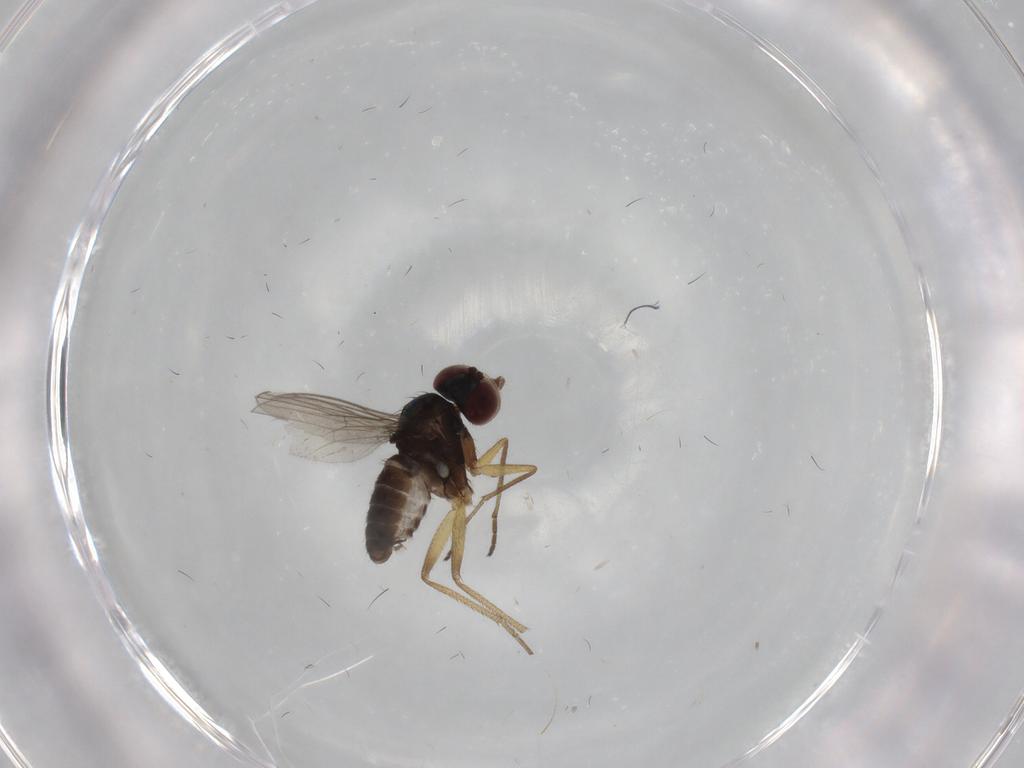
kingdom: Animalia
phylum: Arthropoda
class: Insecta
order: Diptera
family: Dolichopodidae
